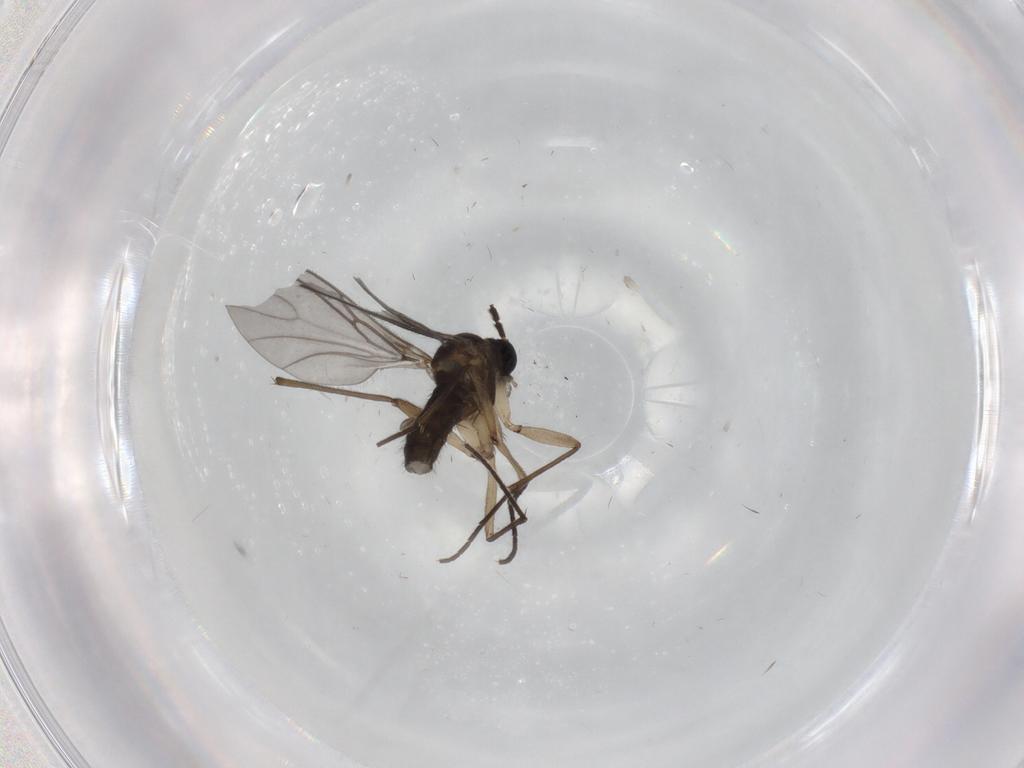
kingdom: Animalia
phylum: Arthropoda
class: Insecta
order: Diptera
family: Sciaridae
